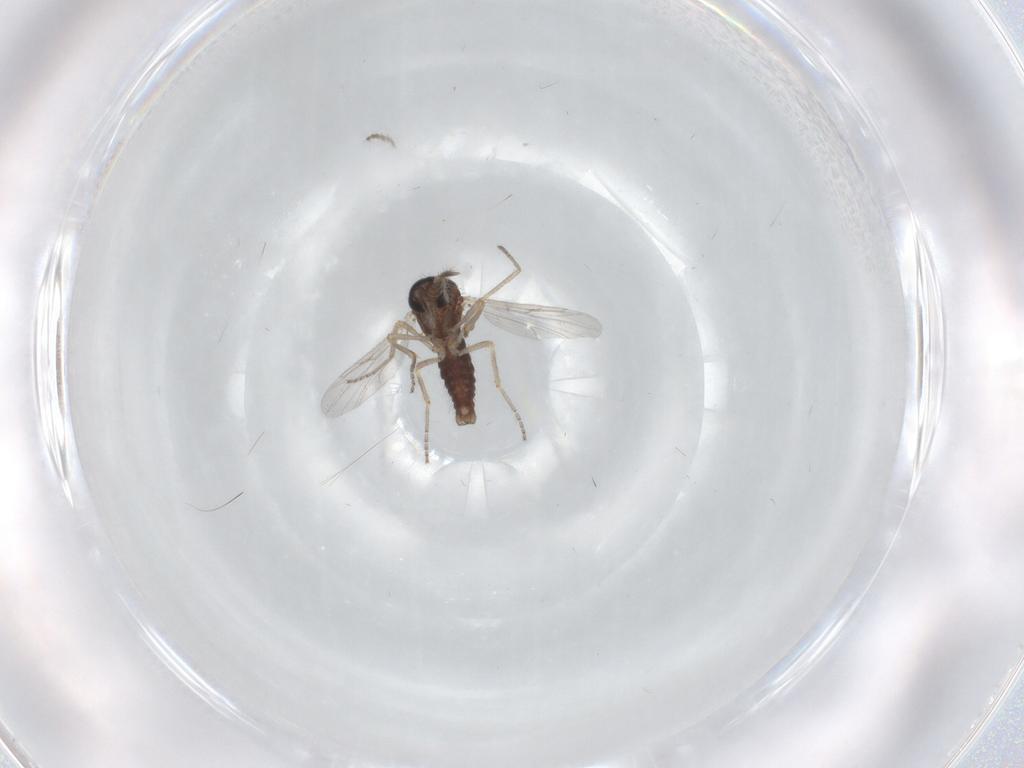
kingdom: Animalia
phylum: Arthropoda
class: Insecta
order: Diptera
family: Ceratopogonidae
